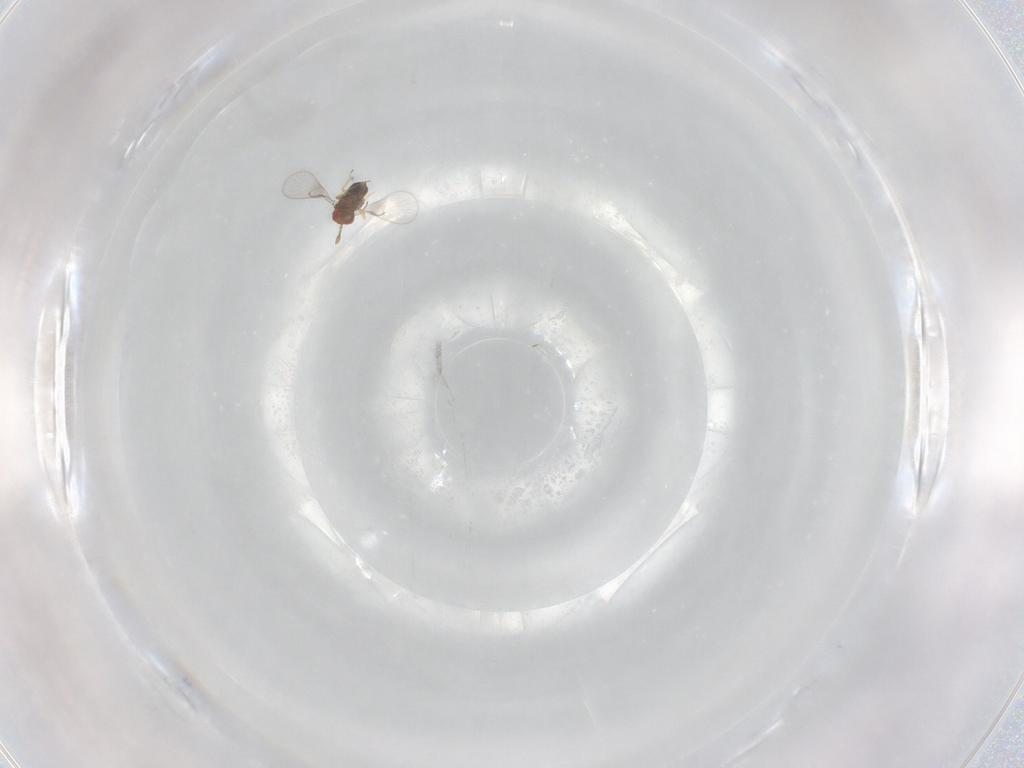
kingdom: Animalia
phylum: Arthropoda
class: Insecta
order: Hymenoptera
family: Trichogrammatidae
